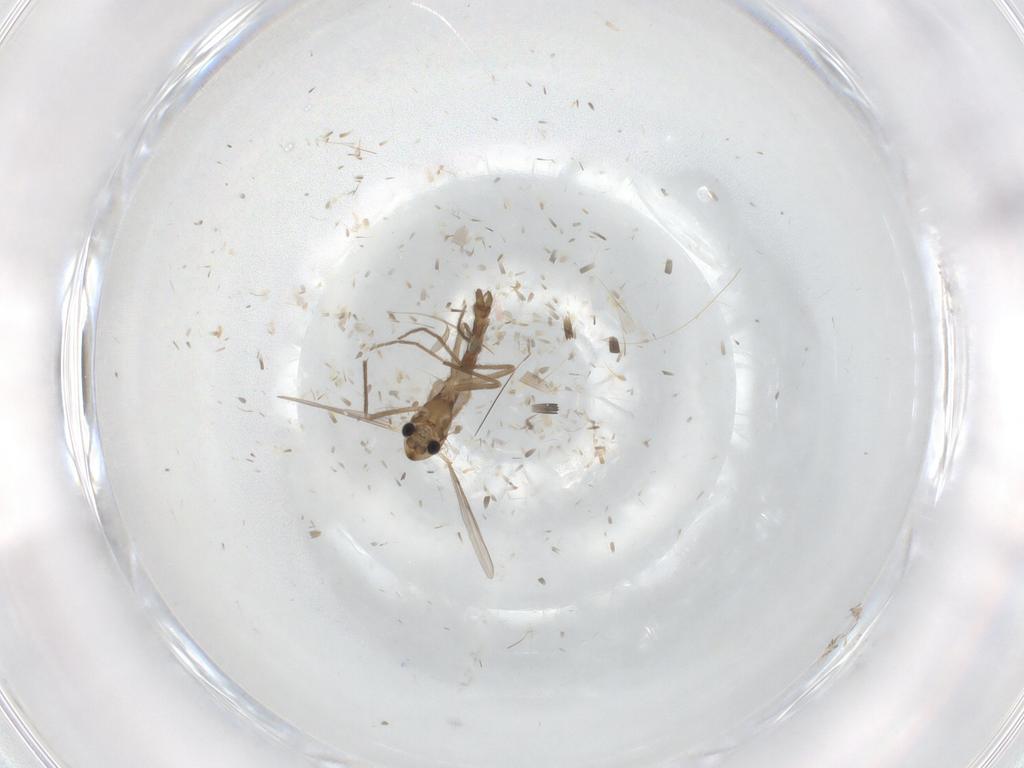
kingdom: Animalia
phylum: Arthropoda
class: Insecta
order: Diptera
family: Chironomidae
